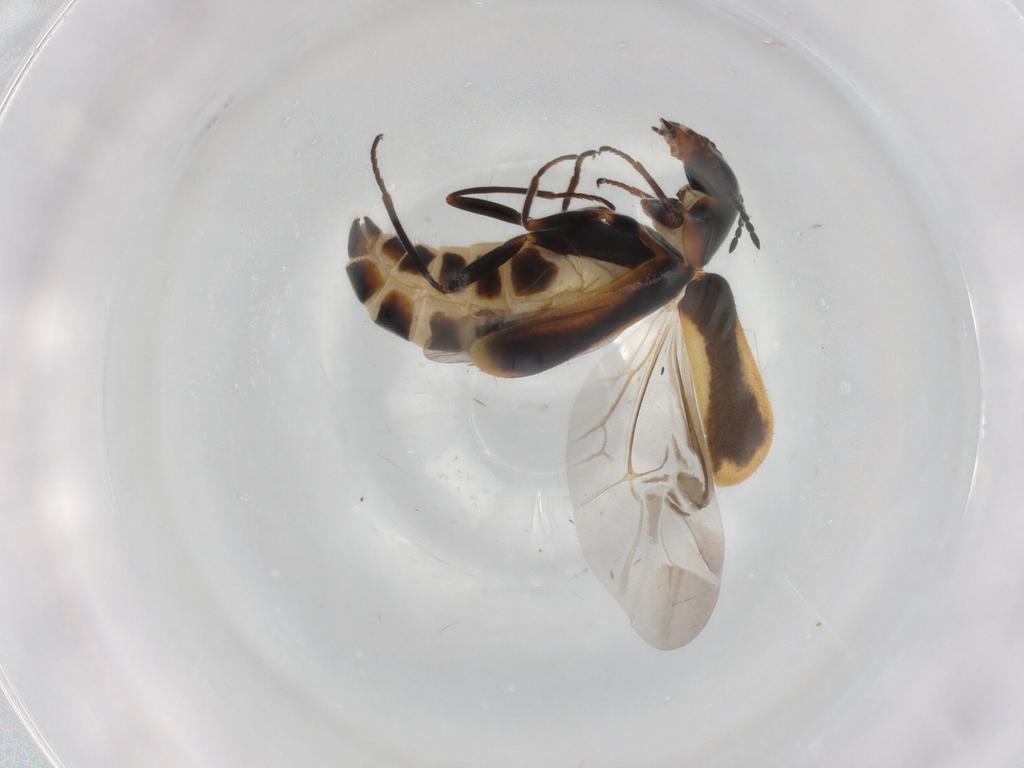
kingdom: Animalia
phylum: Arthropoda
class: Insecta
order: Coleoptera
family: Melyridae
